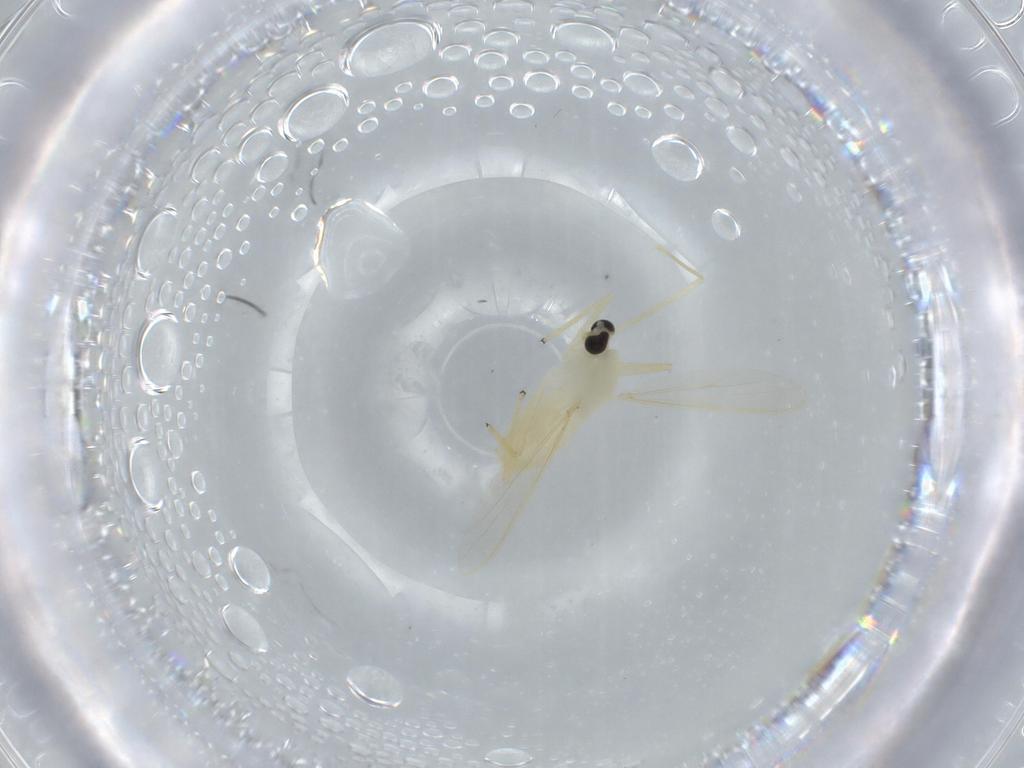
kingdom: Animalia
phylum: Arthropoda
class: Insecta
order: Diptera
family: Chironomidae
